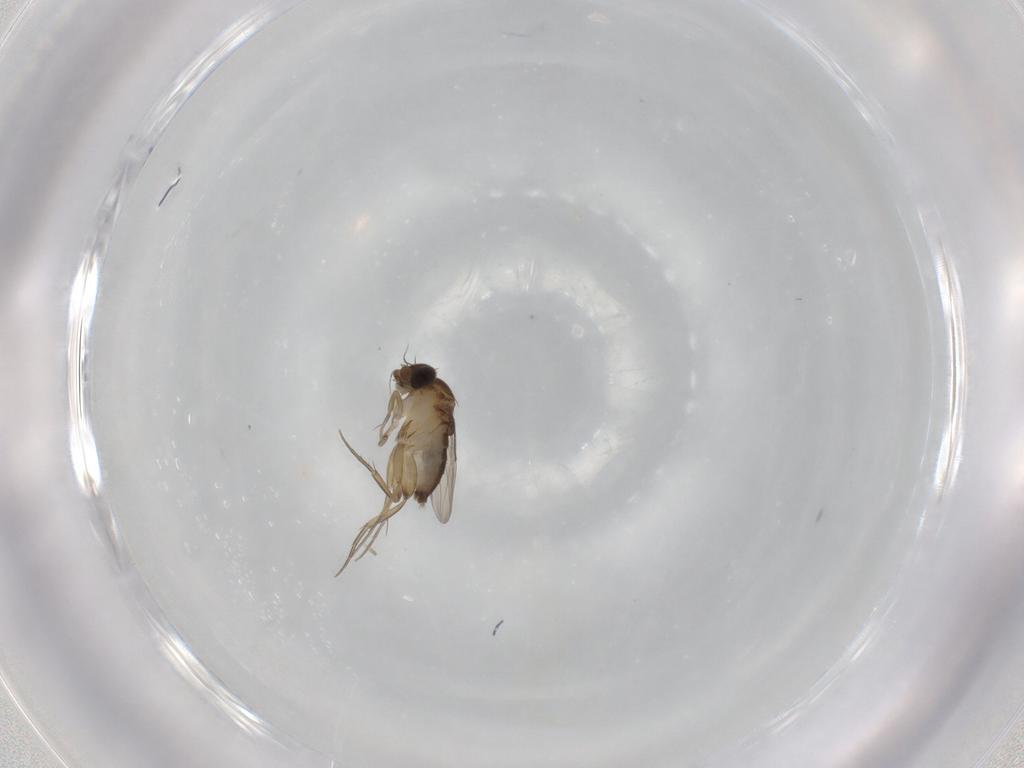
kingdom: Animalia
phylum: Arthropoda
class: Insecta
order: Diptera
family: Phoridae
